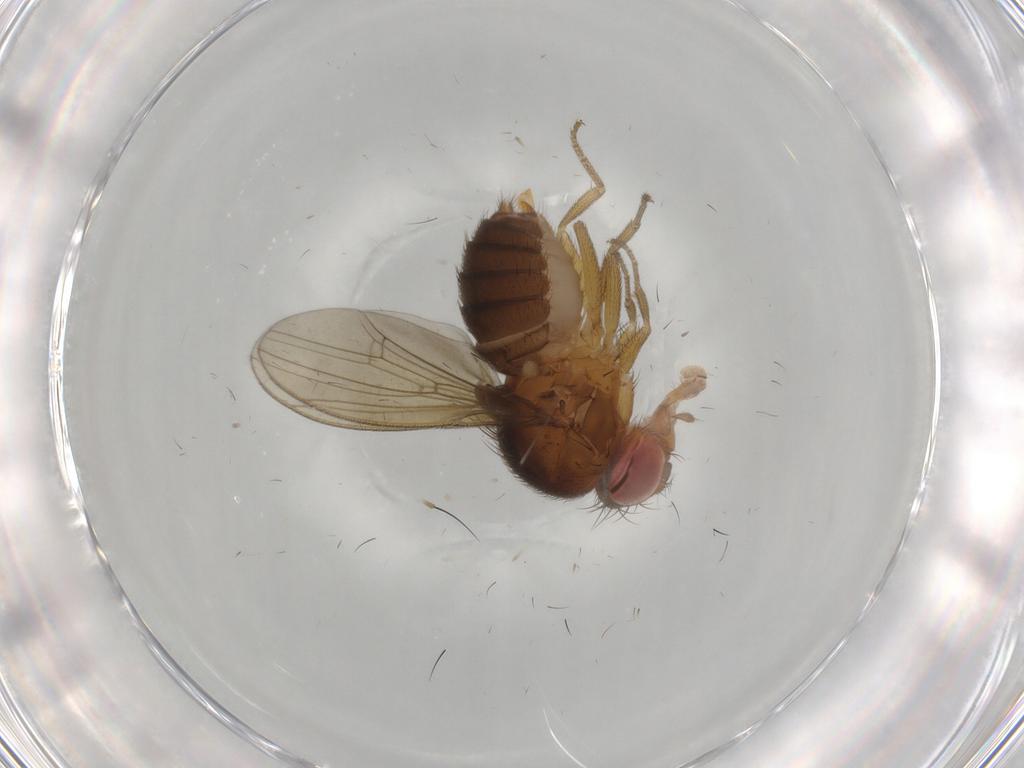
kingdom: Animalia
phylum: Arthropoda
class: Insecta
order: Diptera
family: Drosophilidae
